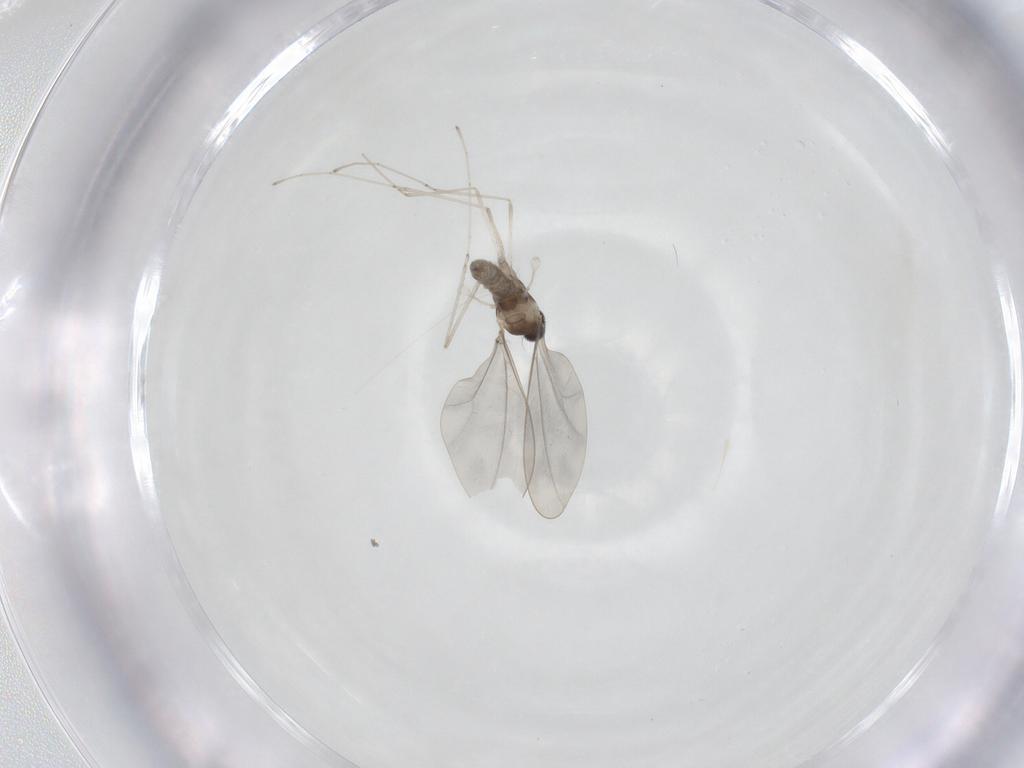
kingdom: Animalia
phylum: Arthropoda
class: Insecta
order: Diptera
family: Cecidomyiidae
